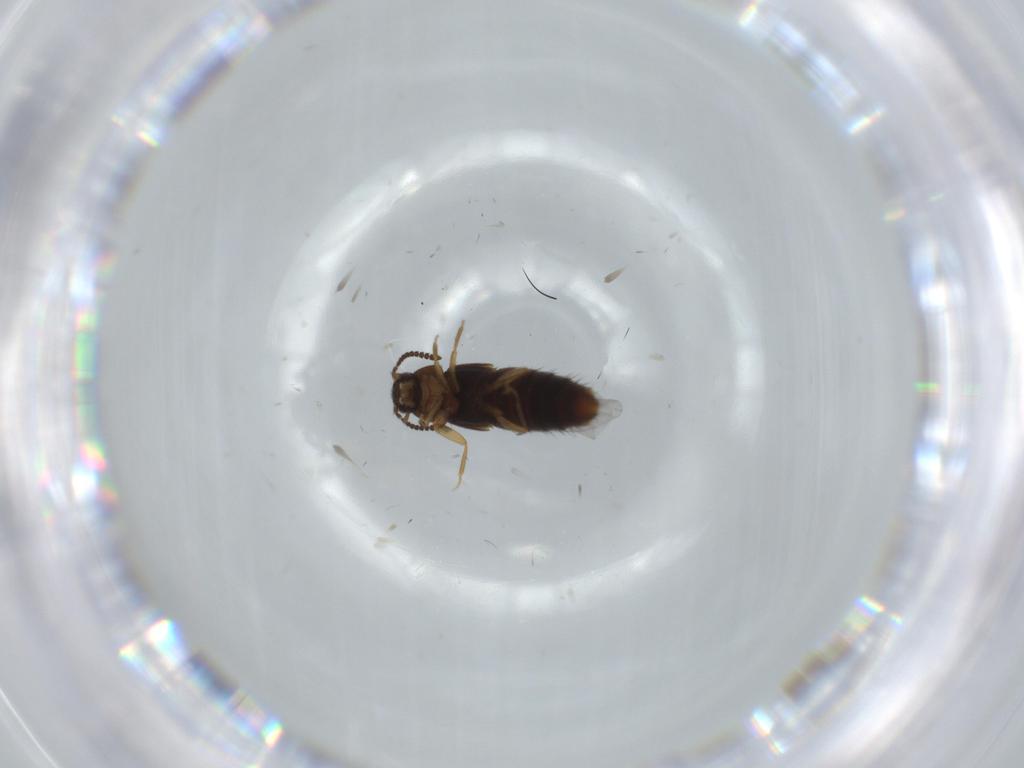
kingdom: Animalia
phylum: Arthropoda
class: Insecta
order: Coleoptera
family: Staphylinidae
